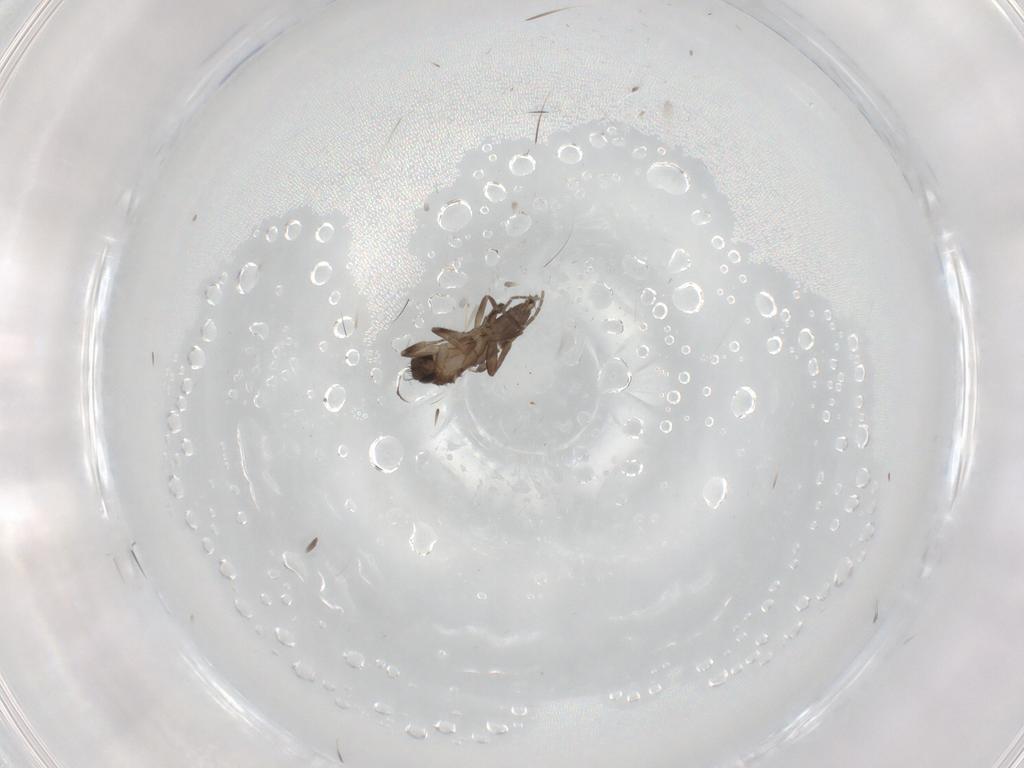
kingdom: Animalia
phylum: Arthropoda
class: Insecta
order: Diptera
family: Phoridae
